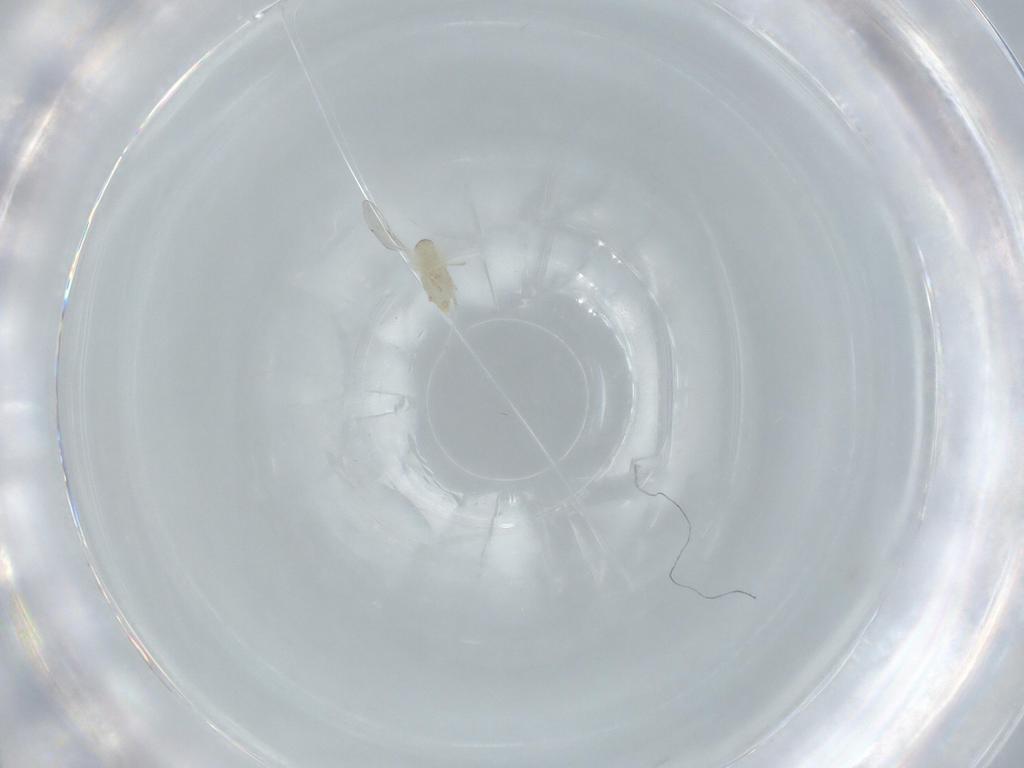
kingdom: Animalia
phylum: Arthropoda
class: Insecta
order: Diptera
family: Cecidomyiidae
